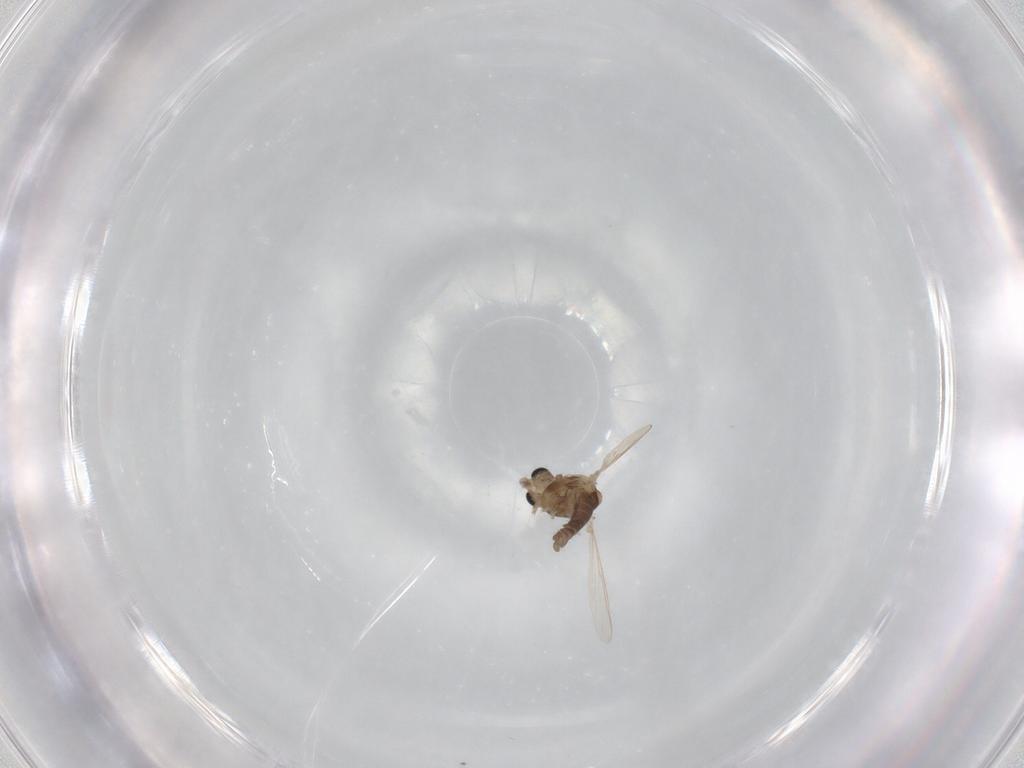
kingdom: Animalia
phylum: Arthropoda
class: Insecta
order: Diptera
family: Chironomidae
